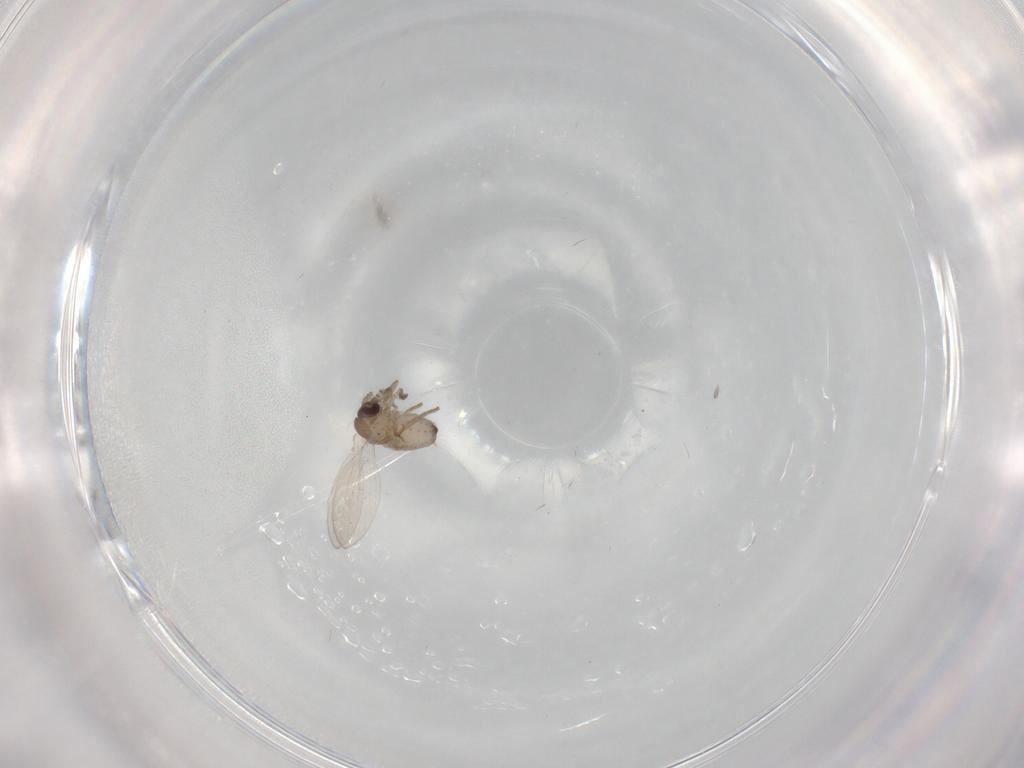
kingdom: Animalia
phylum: Arthropoda
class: Insecta
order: Diptera
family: Psychodidae
